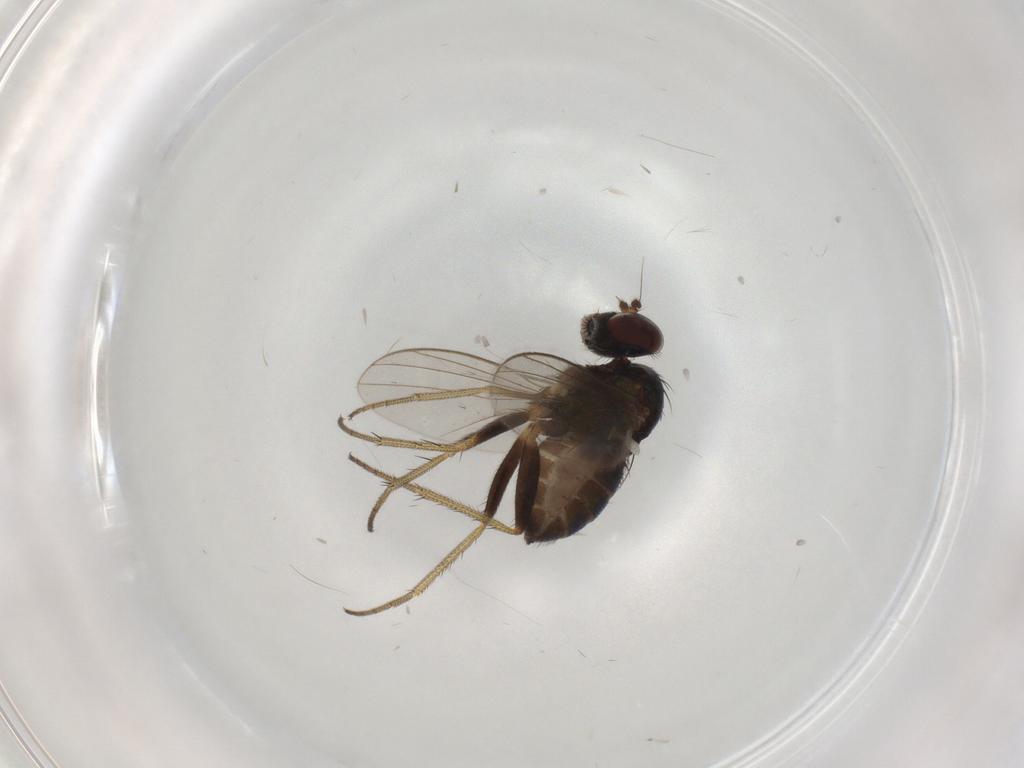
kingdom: Animalia
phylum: Arthropoda
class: Insecta
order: Diptera
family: Dolichopodidae
